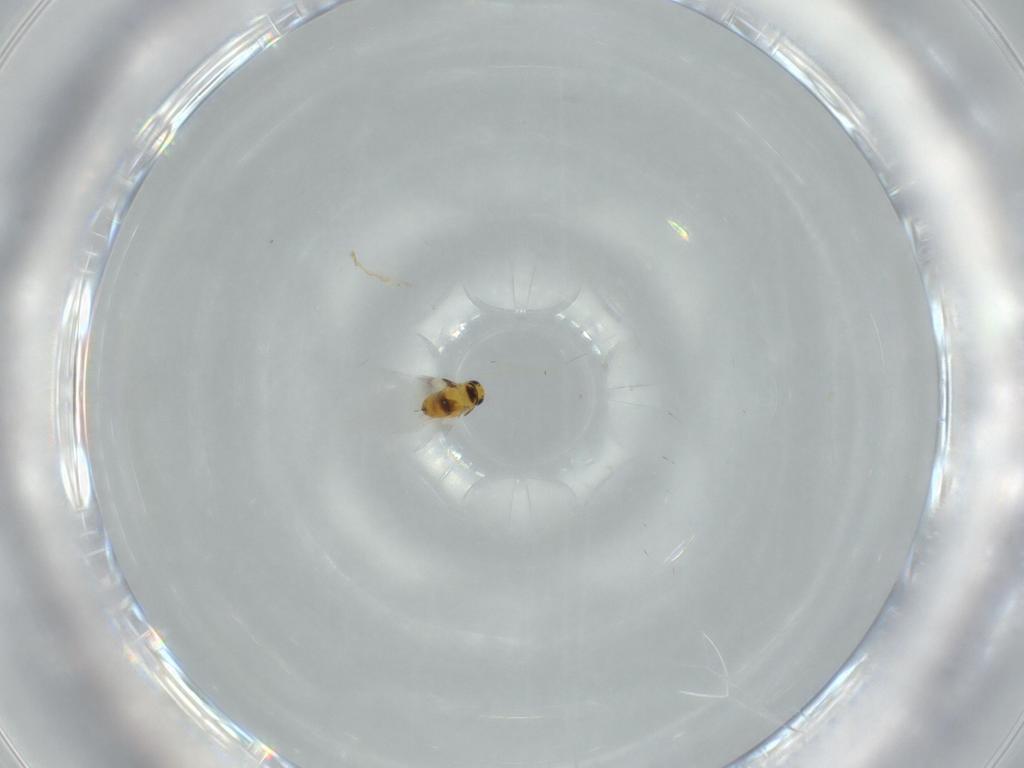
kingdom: Animalia
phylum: Arthropoda
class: Insecta
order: Hymenoptera
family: Signiphoridae
